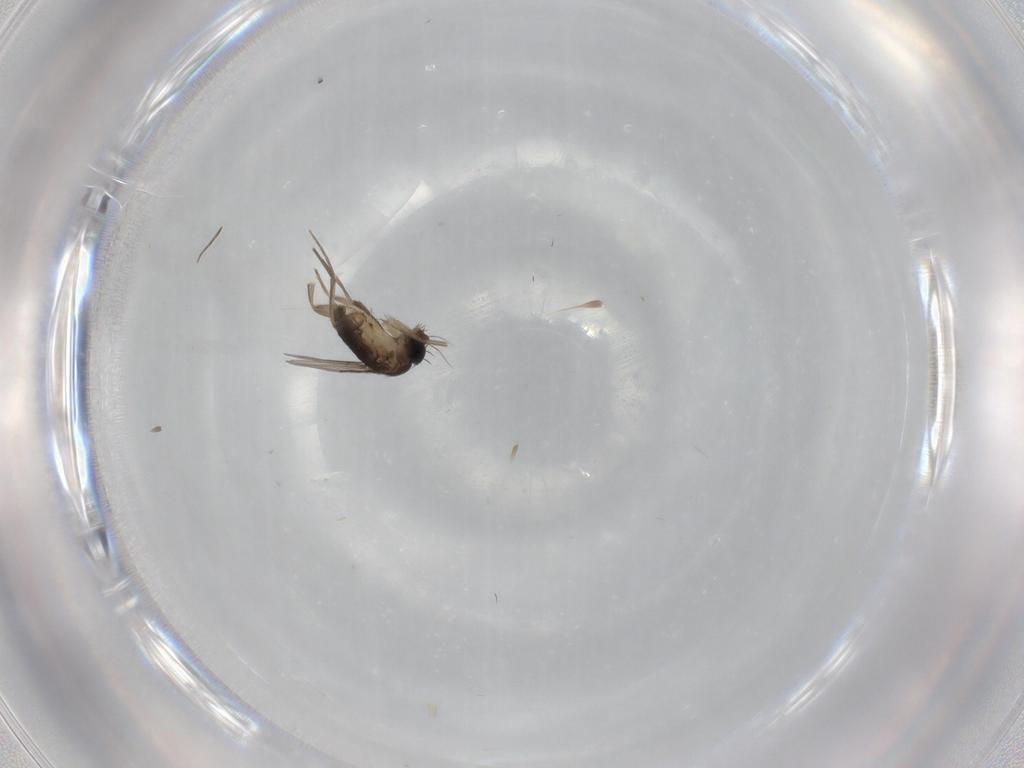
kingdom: Animalia
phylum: Arthropoda
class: Insecta
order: Diptera
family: Phoridae
